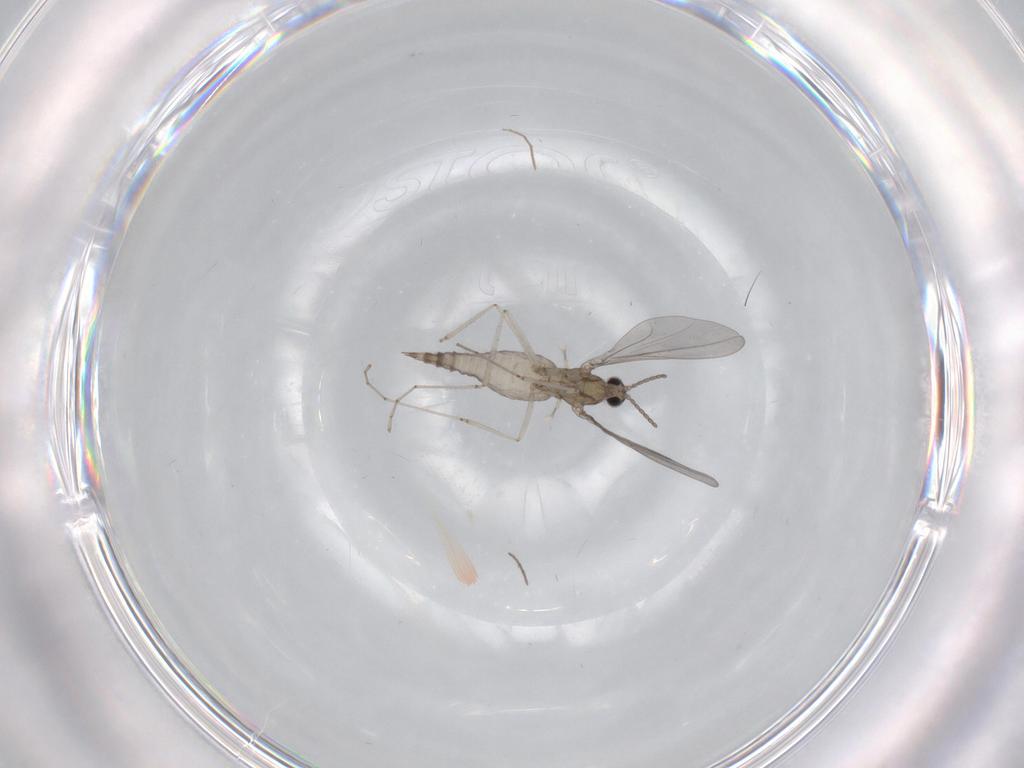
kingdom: Animalia
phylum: Arthropoda
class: Insecta
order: Diptera
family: Cecidomyiidae
